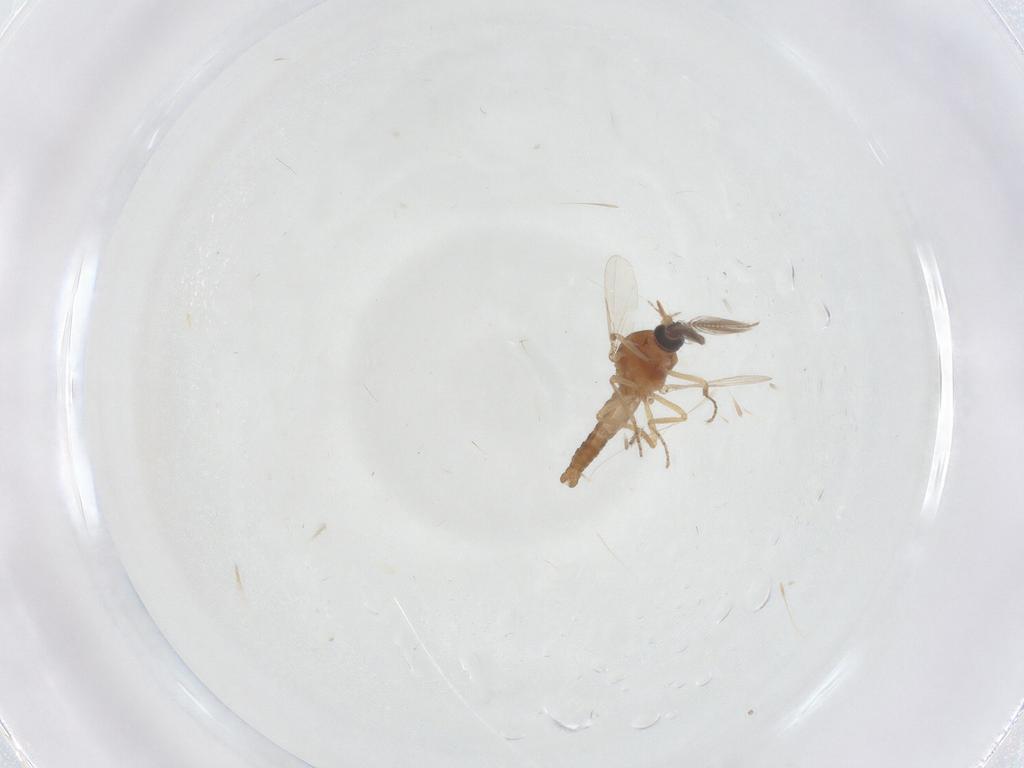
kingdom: Animalia
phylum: Arthropoda
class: Insecta
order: Diptera
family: Ceratopogonidae
